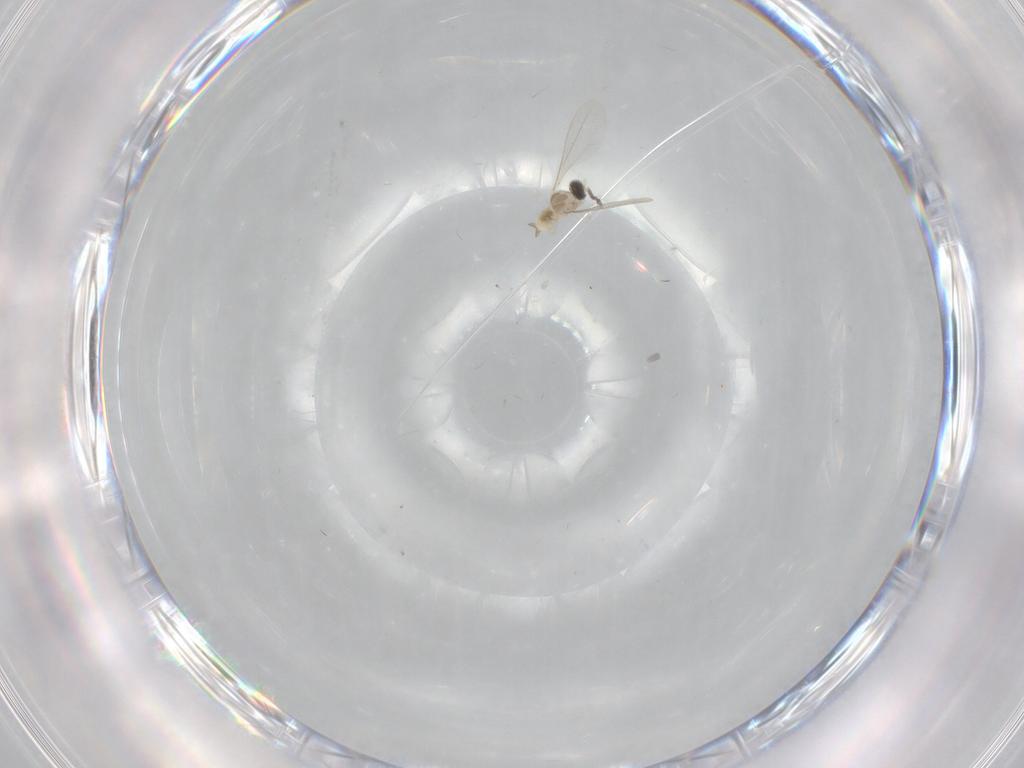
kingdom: Animalia
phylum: Arthropoda
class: Insecta
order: Diptera
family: Cecidomyiidae
